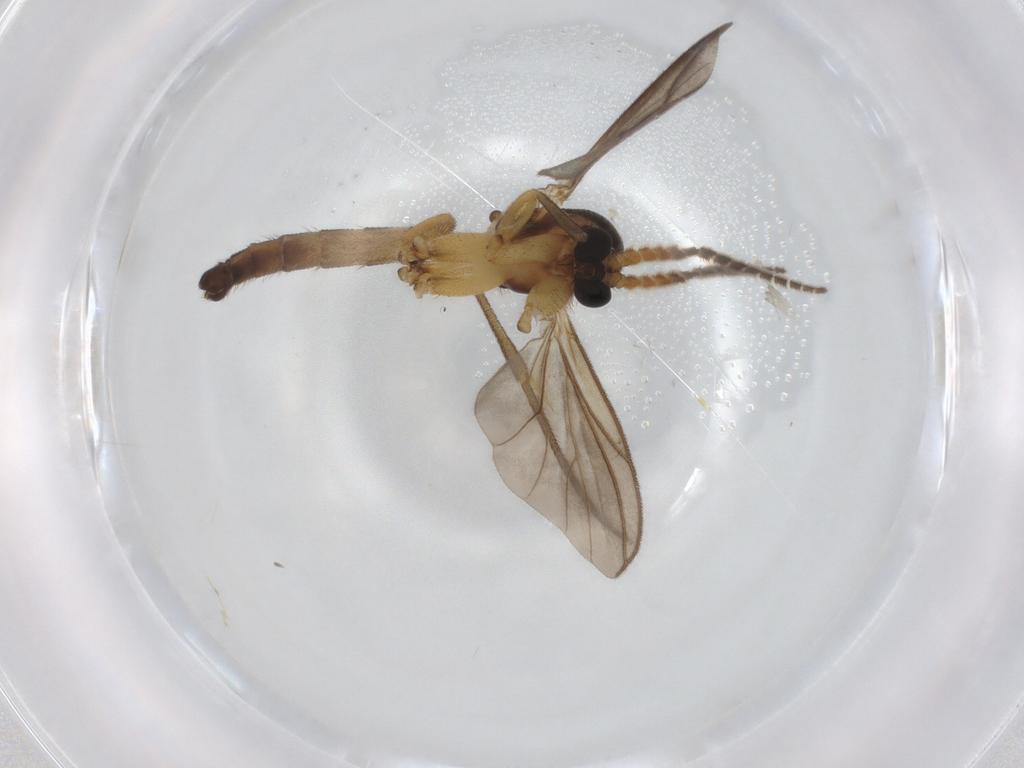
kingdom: Animalia
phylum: Arthropoda
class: Insecta
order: Diptera
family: Mycetophilidae
